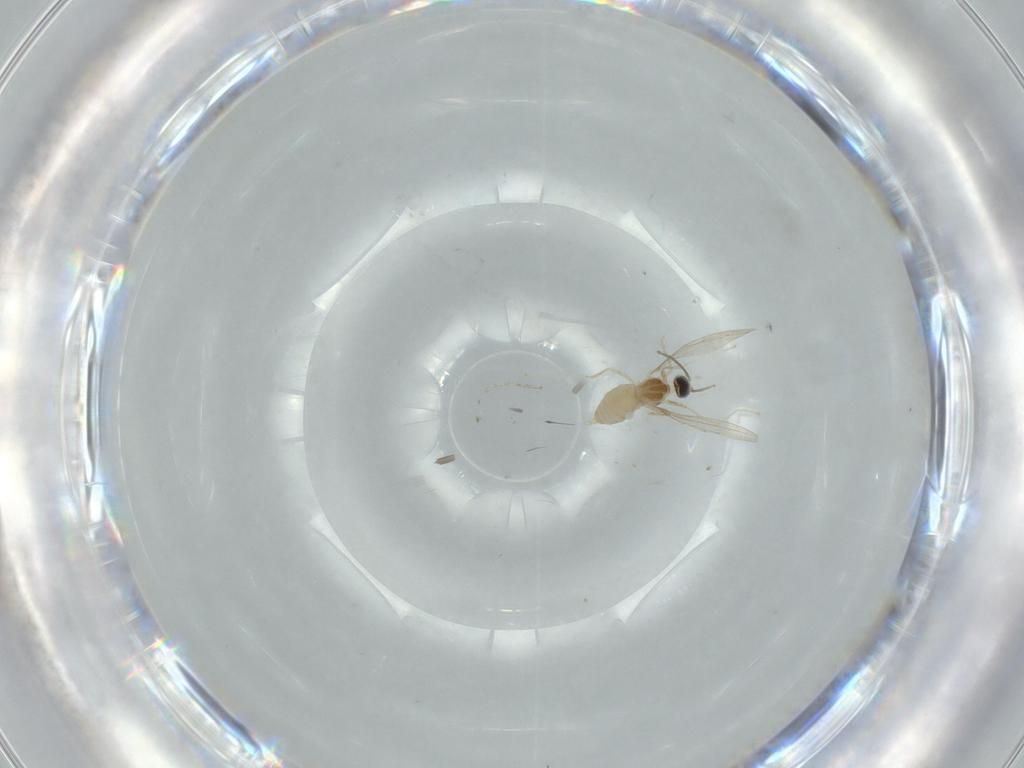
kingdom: Animalia
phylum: Arthropoda
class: Insecta
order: Diptera
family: Cecidomyiidae
